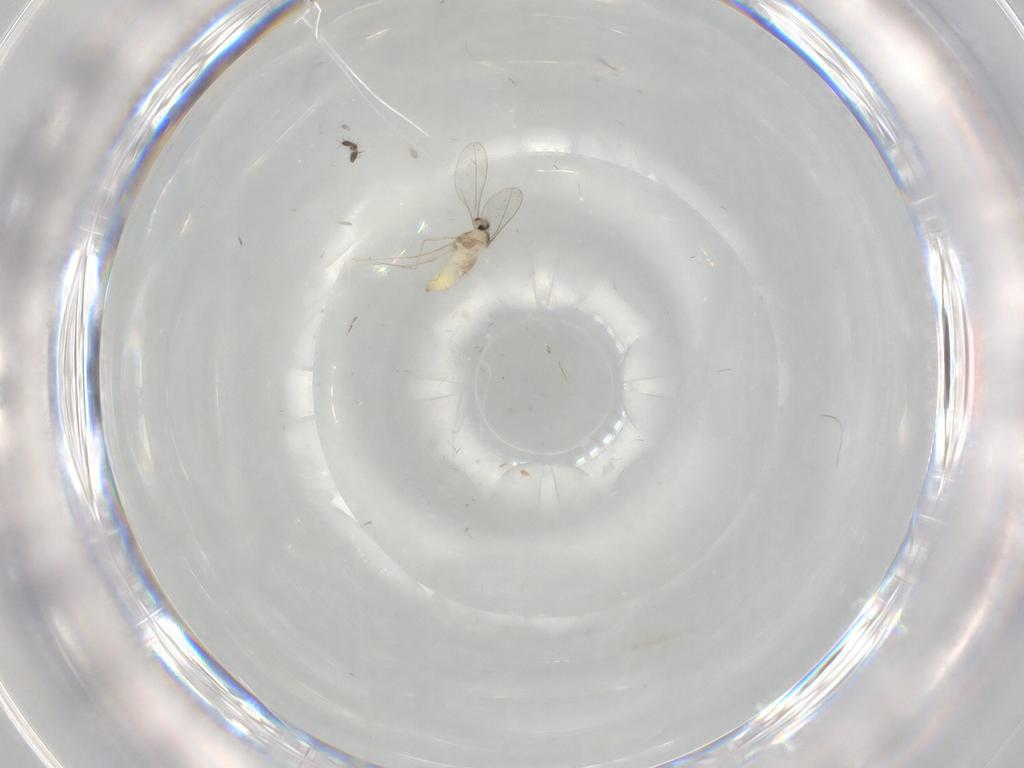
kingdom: Animalia
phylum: Arthropoda
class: Insecta
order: Diptera
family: Cecidomyiidae
